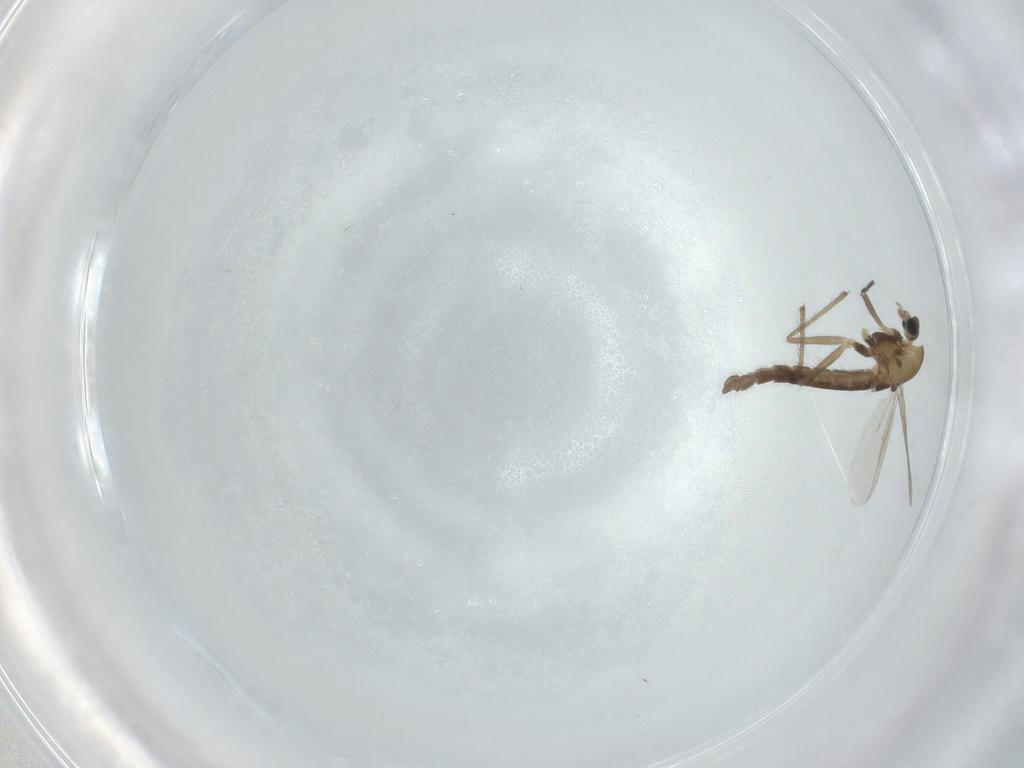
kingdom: Animalia
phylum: Arthropoda
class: Insecta
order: Diptera
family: Chironomidae
